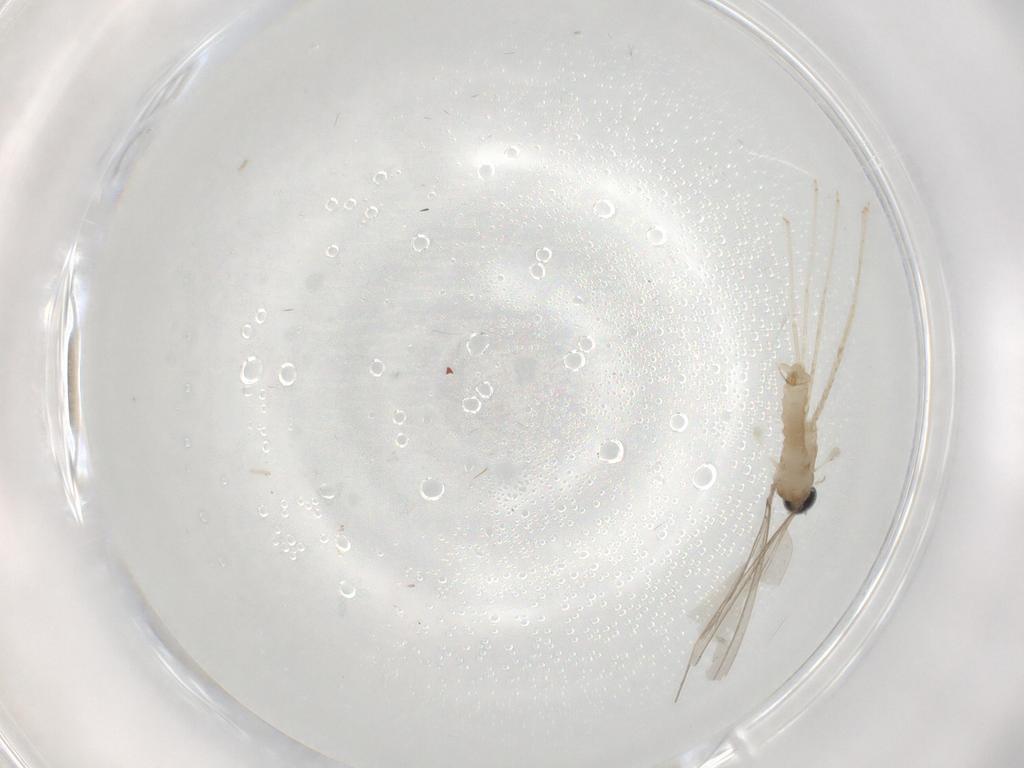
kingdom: Animalia
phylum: Arthropoda
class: Insecta
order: Diptera
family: Cecidomyiidae
